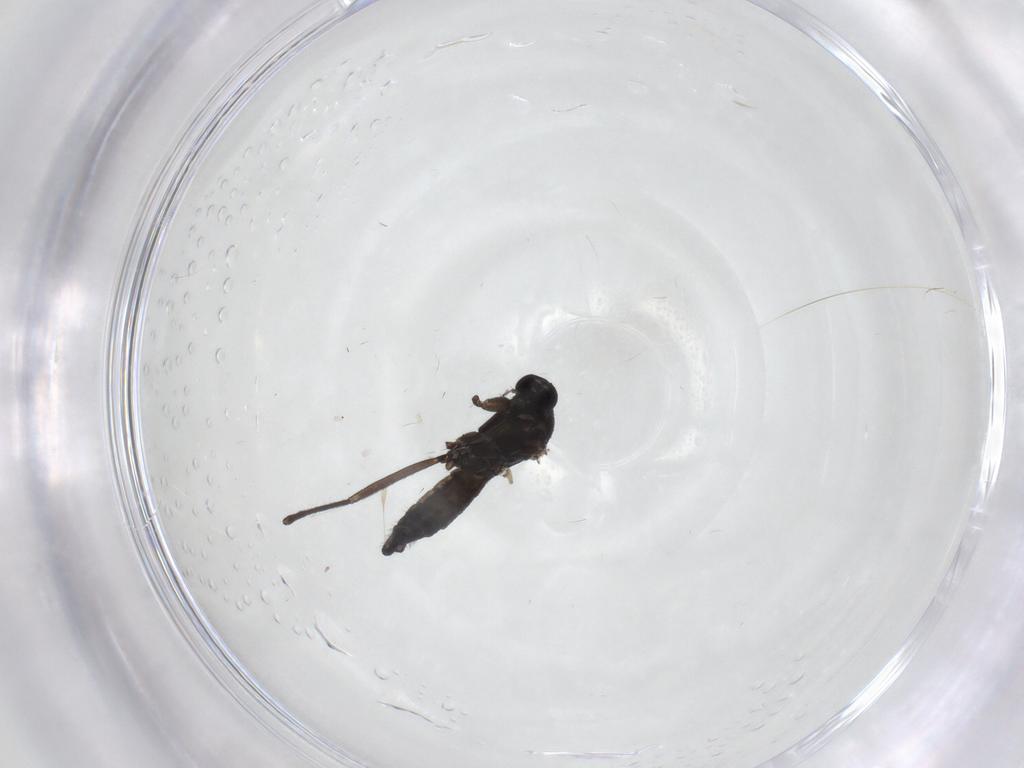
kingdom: Animalia
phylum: Arthropoda
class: Insecta
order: Diptera
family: Sciaridae
